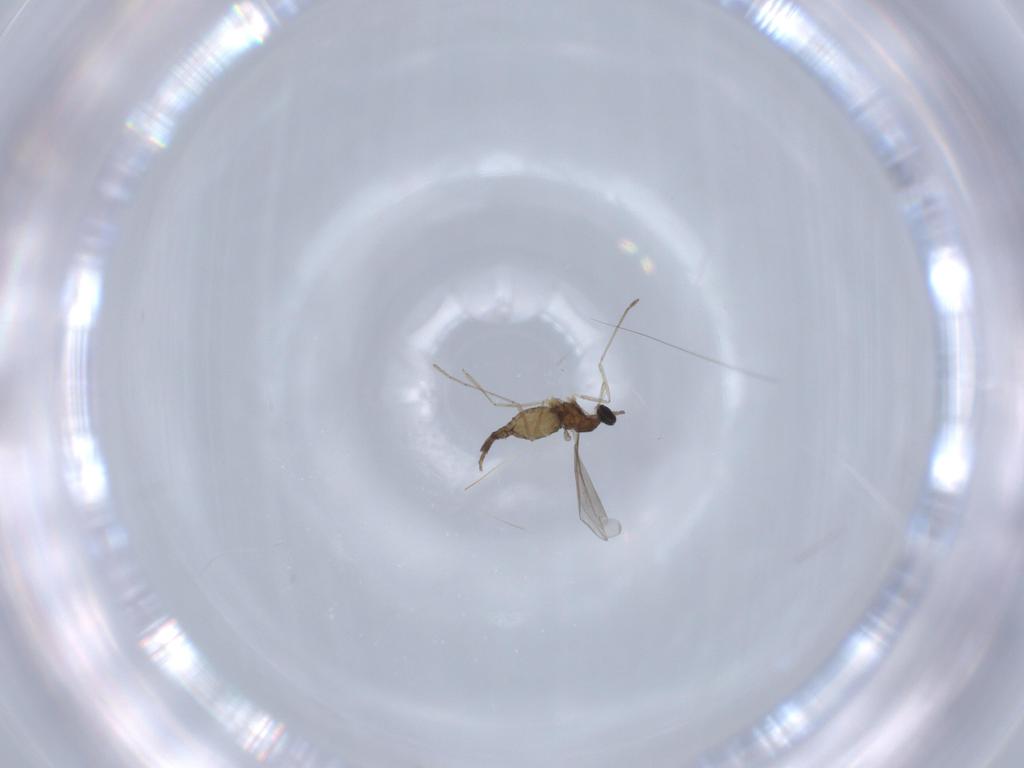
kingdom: Animalia
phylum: Arthropoda
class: Insecta
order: Diptera
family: Cecidomyiidae
